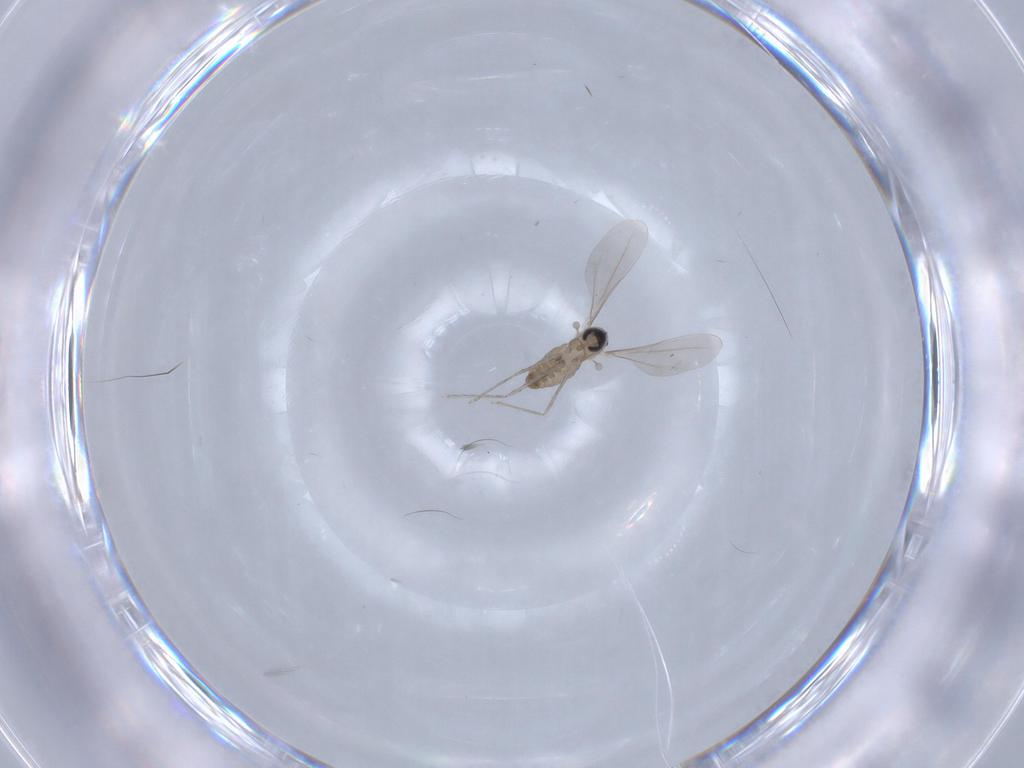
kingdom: Animalia
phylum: Arthropoda
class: Insecta
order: Diptera
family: Cecidomyiidae
